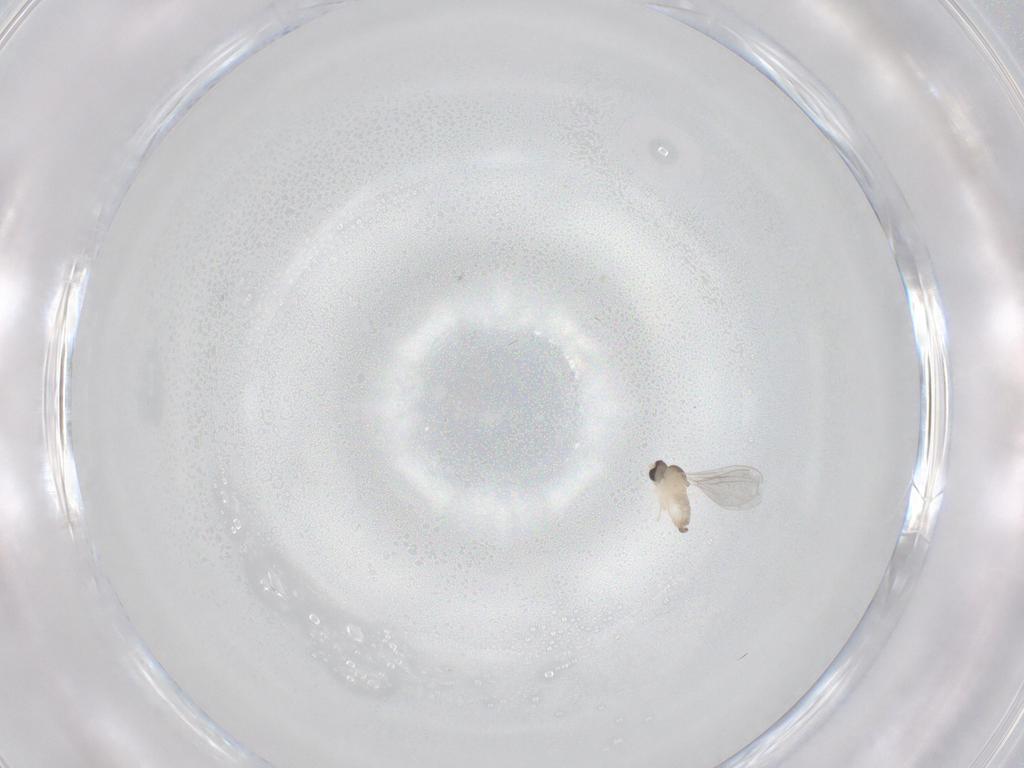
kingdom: Animalia
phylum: Arthropoda
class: Insecta
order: Diptera
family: Cecidomyiidae
